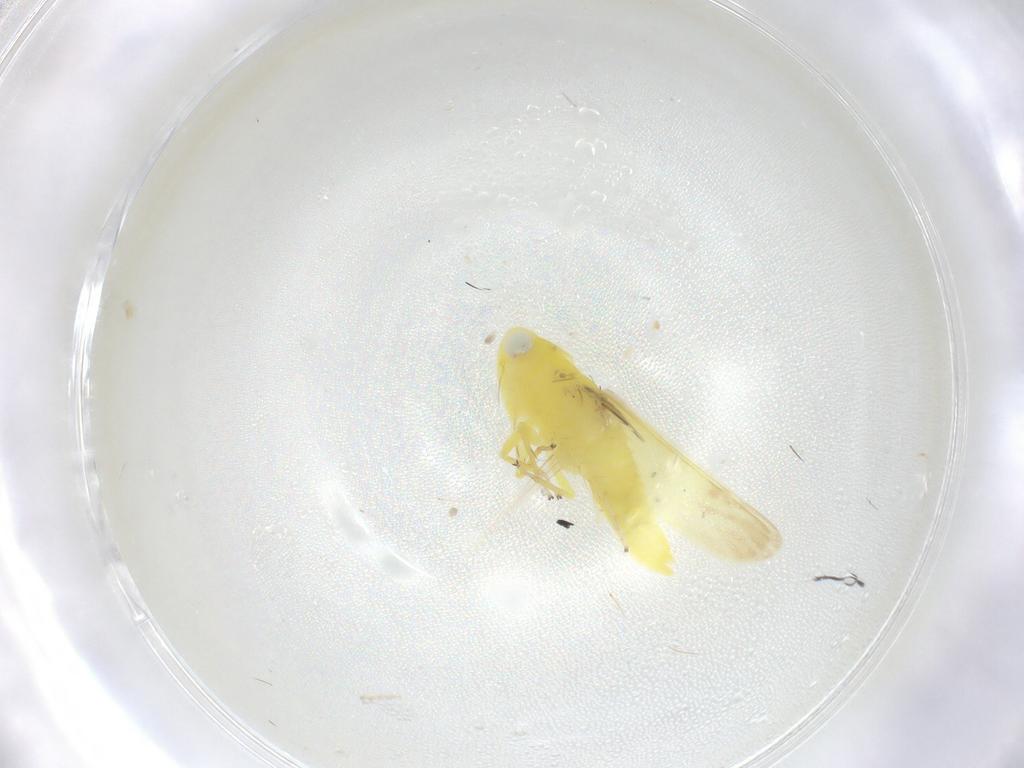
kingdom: Animalia
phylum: Arthropoda
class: Insecta
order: Hemiptera
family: Cicadellidae
